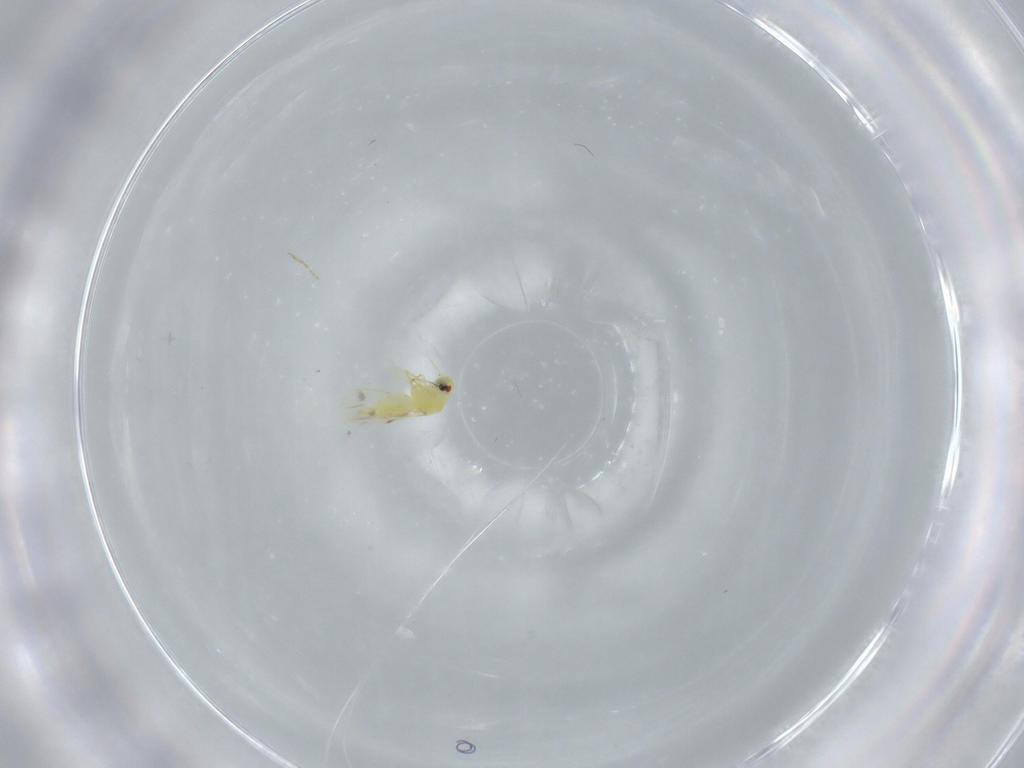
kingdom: Animalia
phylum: Arthropoda
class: Insecta
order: Hemiptera
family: Aleyrodidae
